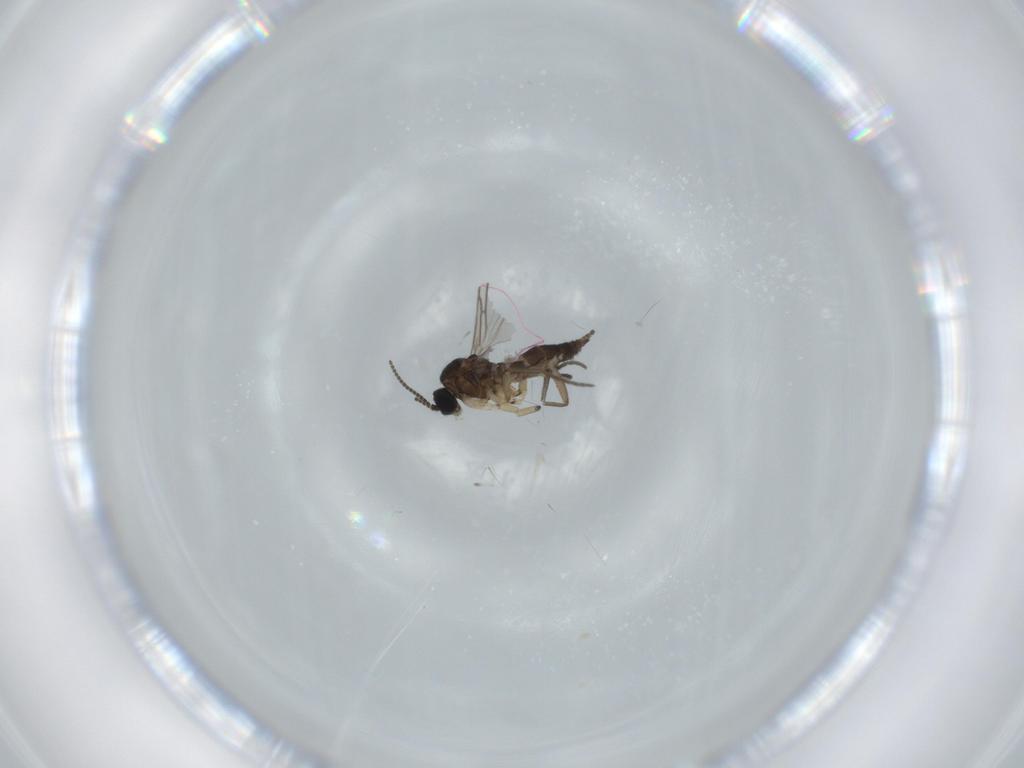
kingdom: Animalia
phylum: Arthropoda
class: Insecta
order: Diptera
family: Sciaridae
